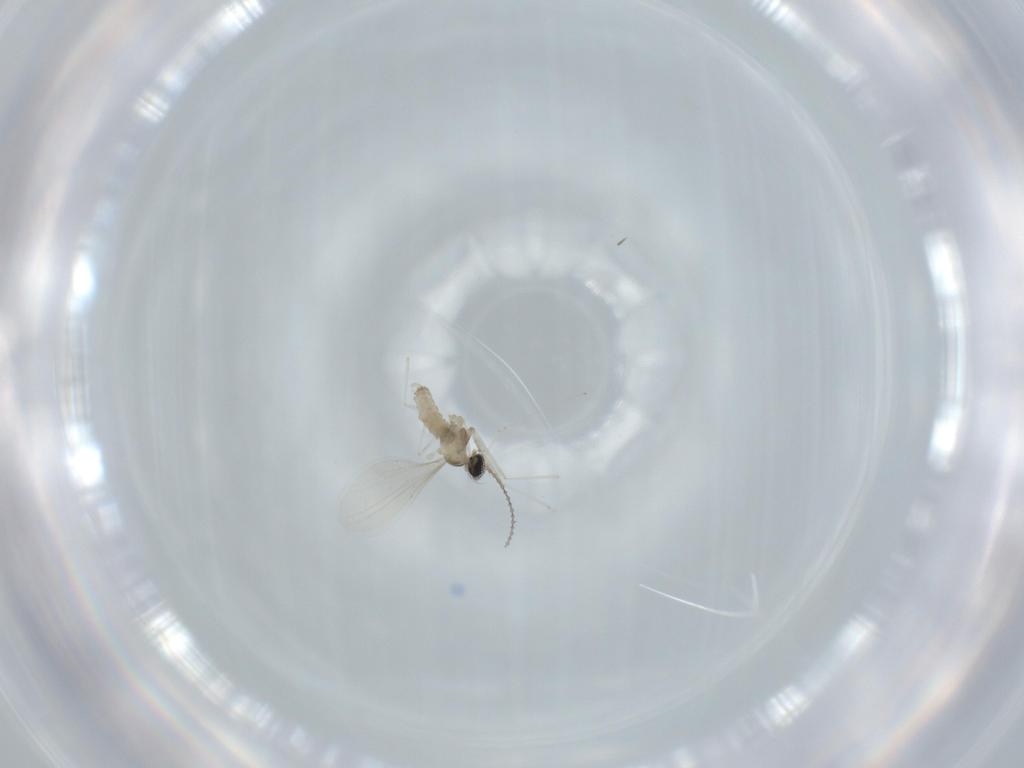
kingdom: Animalia
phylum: Arthropoda
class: Insecta
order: Diptera
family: Cecidomyiidae
